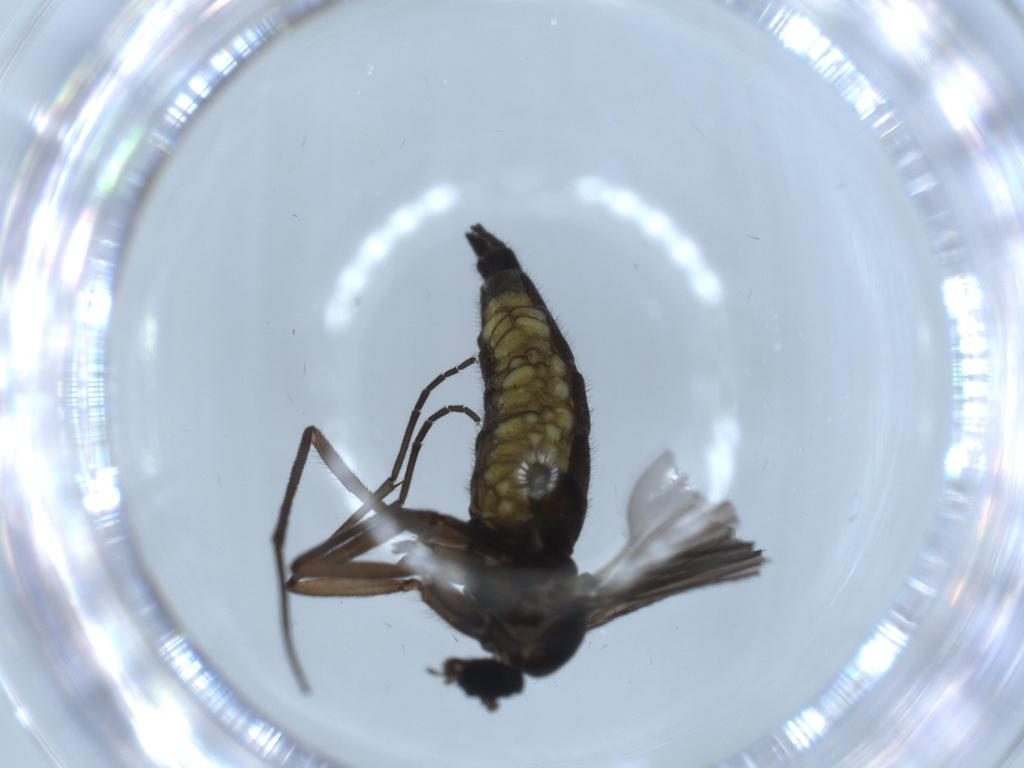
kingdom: Animalia
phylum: Arthropoda
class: Insecta
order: Diptera
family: Sciaridae
